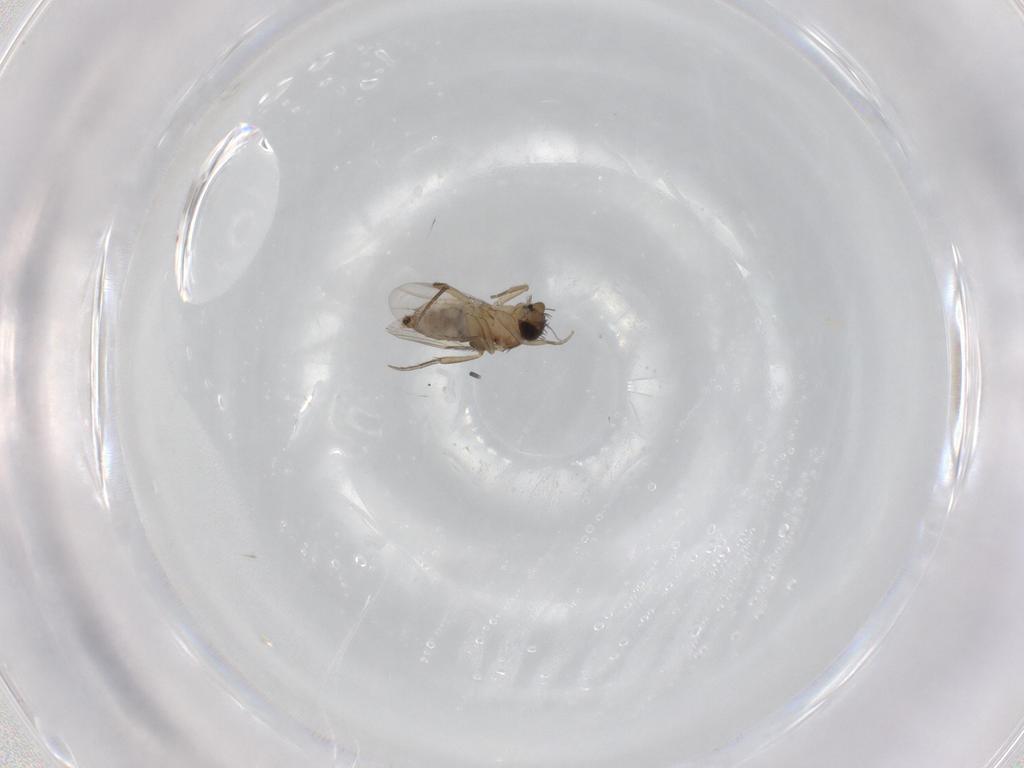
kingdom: Animalia
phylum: Arthropoda
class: Insecta
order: Diptera
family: Phoridae
